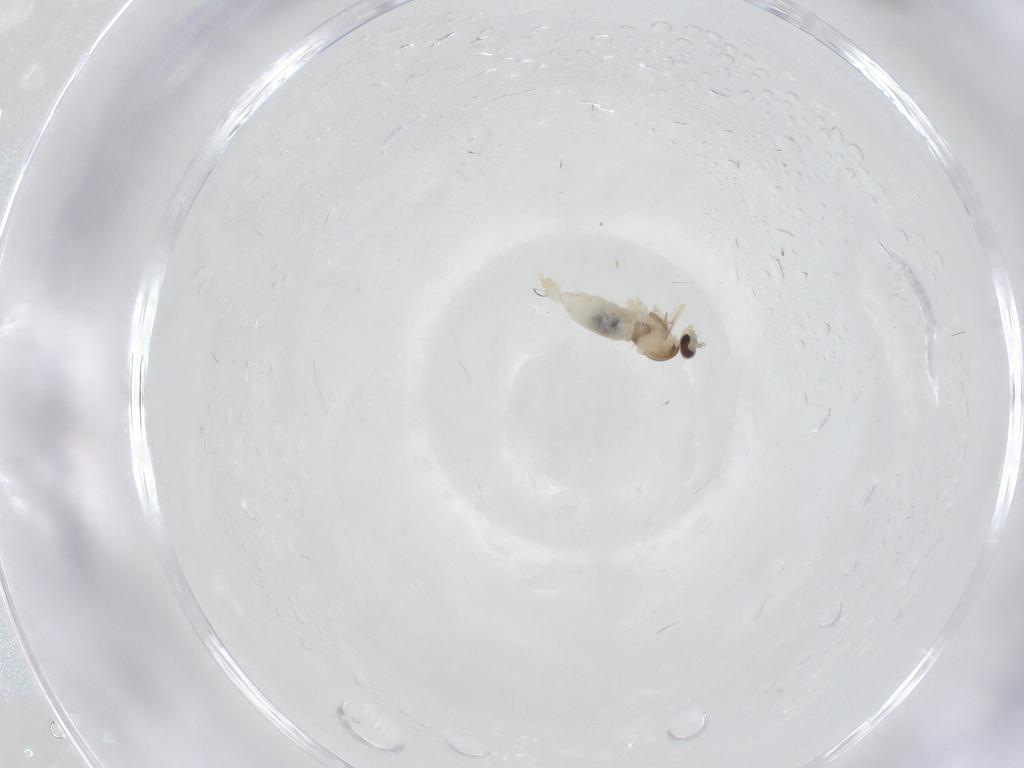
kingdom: Animalia
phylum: Arthropoda
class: Insecta
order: Diptera
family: Cecidomyiidae
